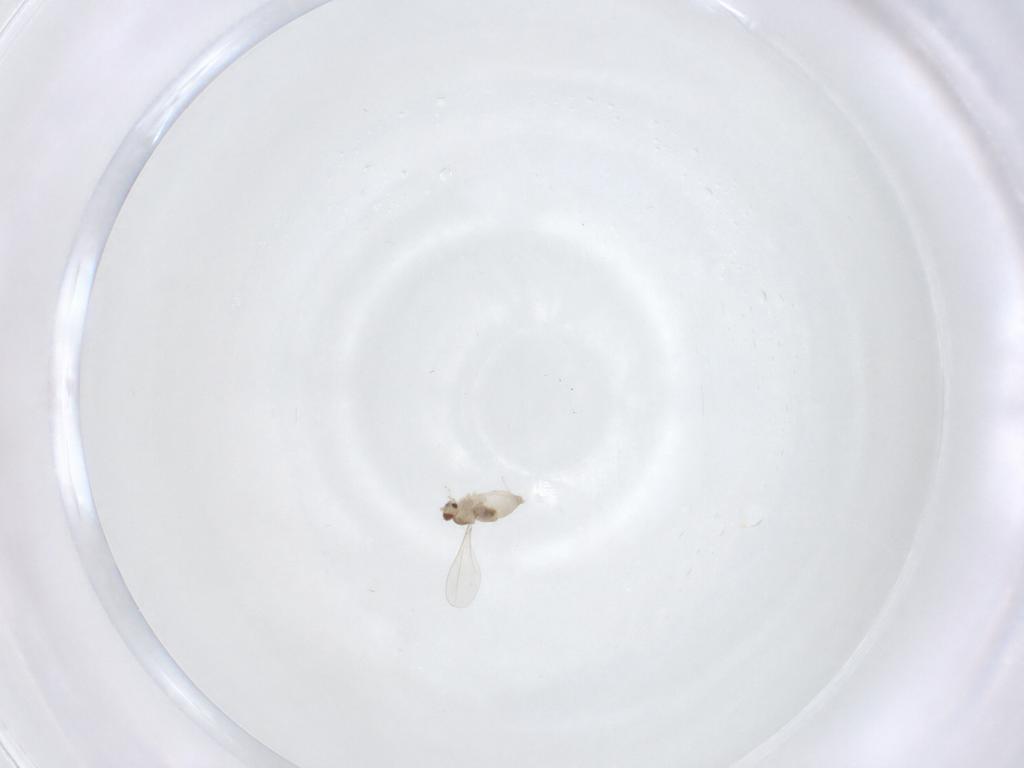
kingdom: Animalia
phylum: Arthropoda
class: Insecta
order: Diptera
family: Cecidomyiidae
